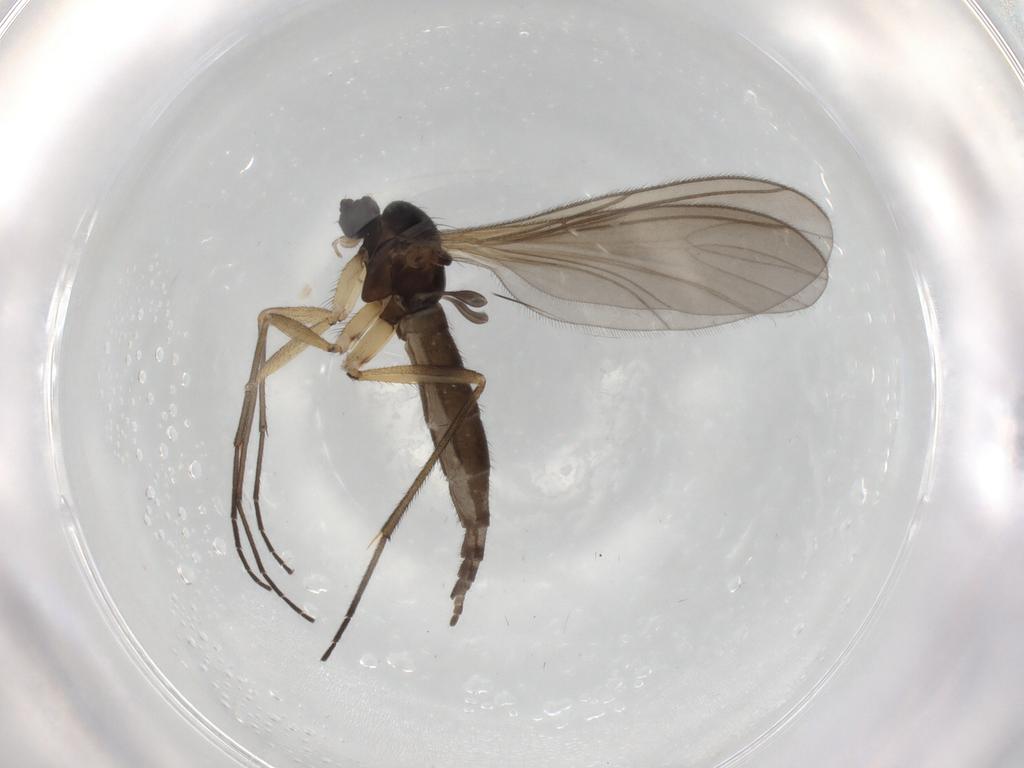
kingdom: Animalia
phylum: Arthropoda
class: Insecta
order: Diptera
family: Sciaridae
